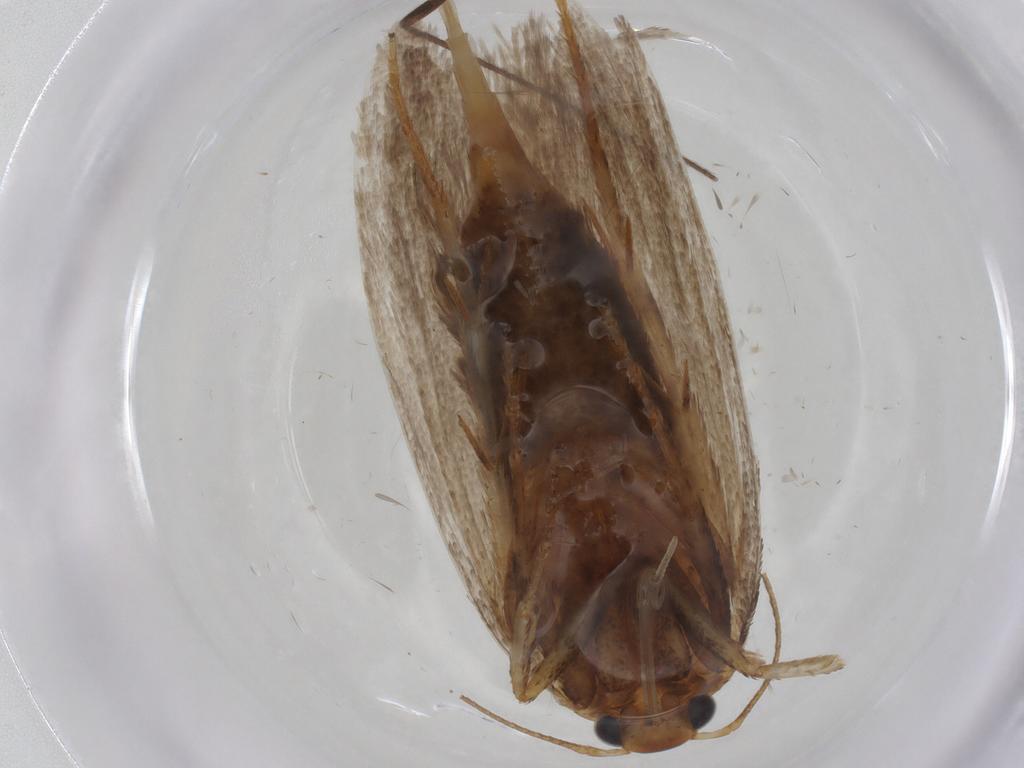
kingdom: Animalia
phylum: Arthropoda
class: Insecta
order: Lepidoptera
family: Oecophoridae
